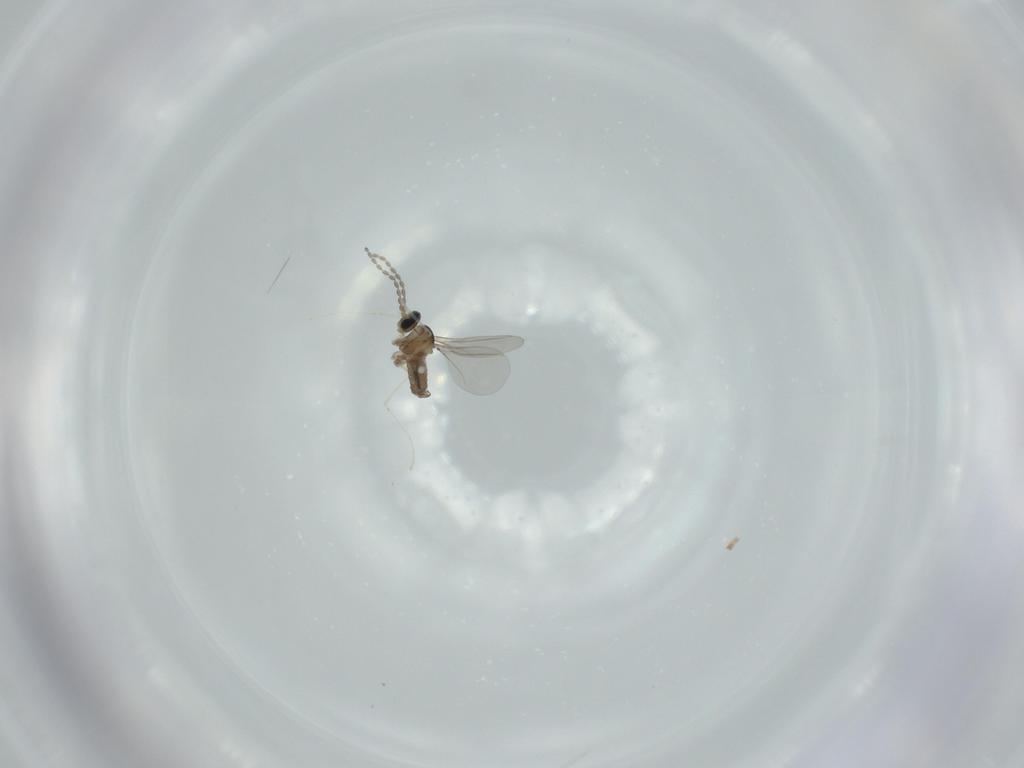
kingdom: Animalia
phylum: Arthropoda
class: Insecta
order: Diptera
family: Cecidomyiidae
